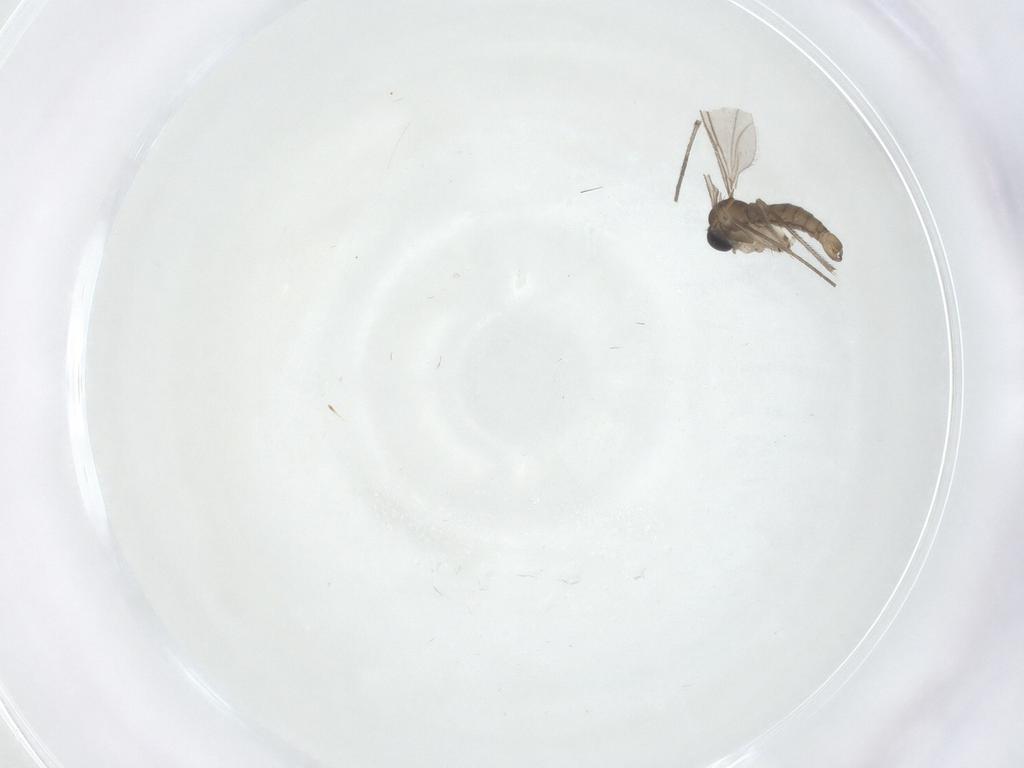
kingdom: Animalia
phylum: Arthropoda
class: Insecta
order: Diptera
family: Sciaridae
